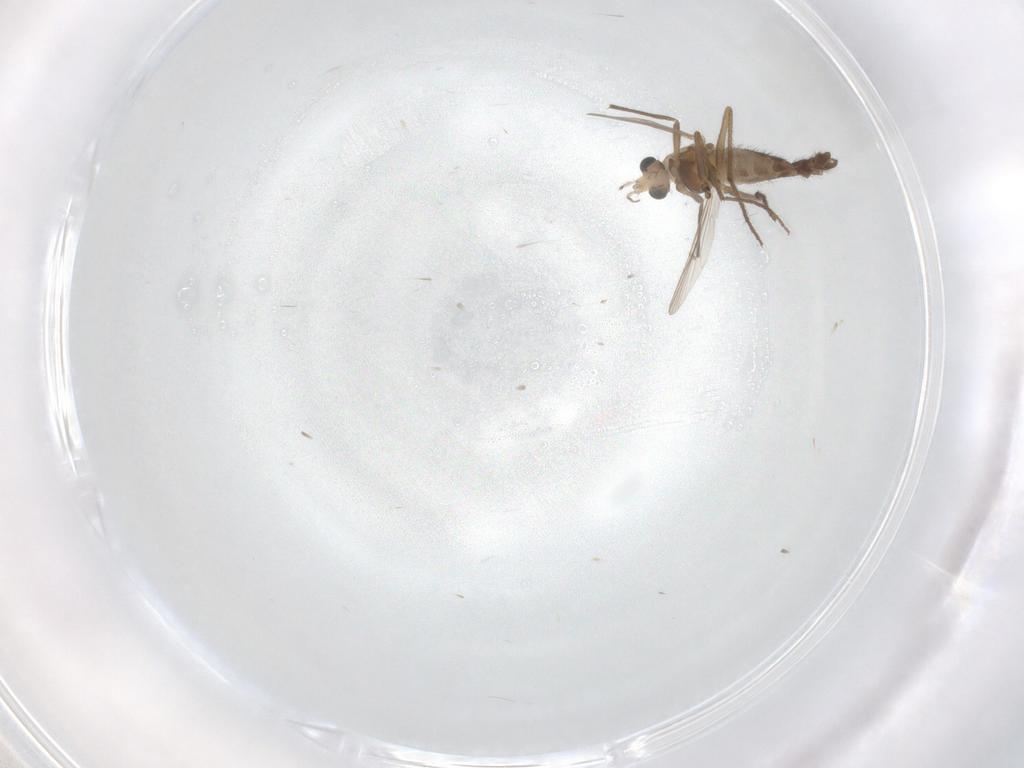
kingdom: Animalia
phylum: Arthropoda
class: Insecta
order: Diptera
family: Chironomidae
